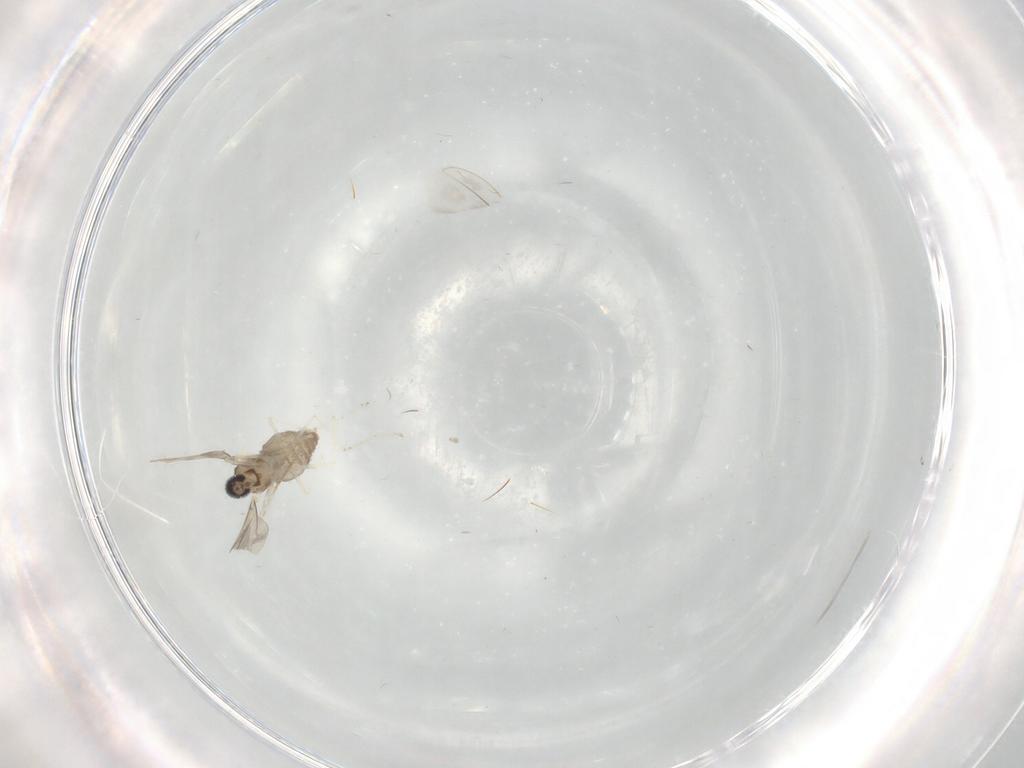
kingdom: Animalia
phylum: Arthropoda
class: Insecta
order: Diptera
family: Cecidomyiidae
